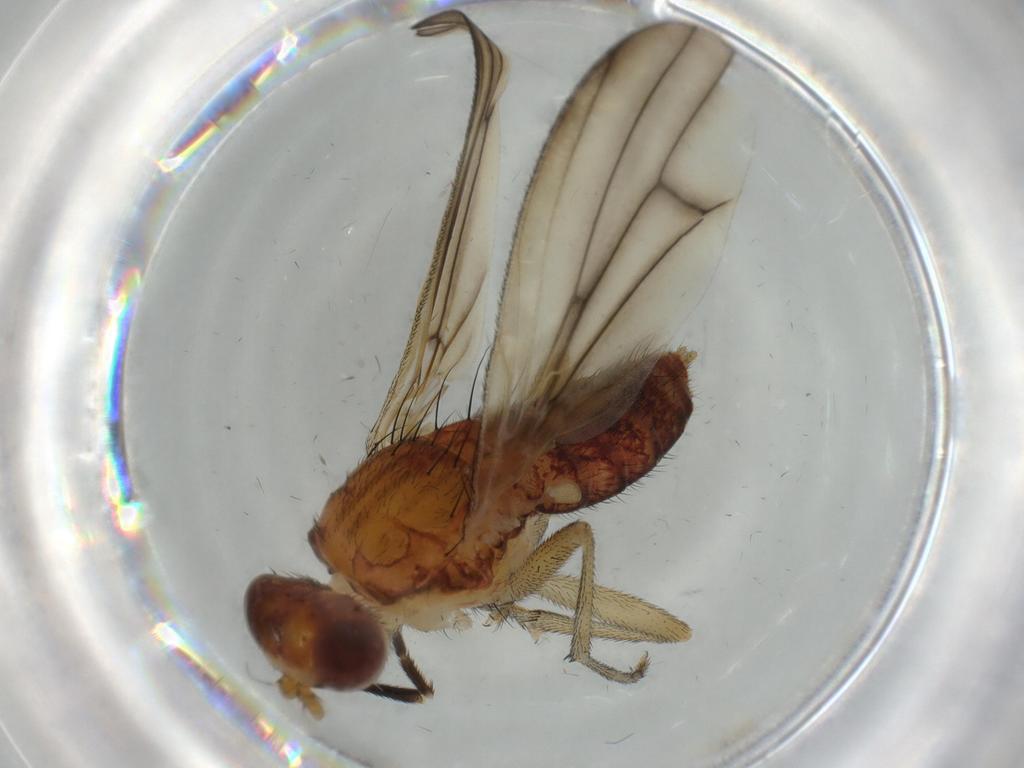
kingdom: Animalia
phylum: Arthropoda
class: Insecta
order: Diptera
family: Phoridae
